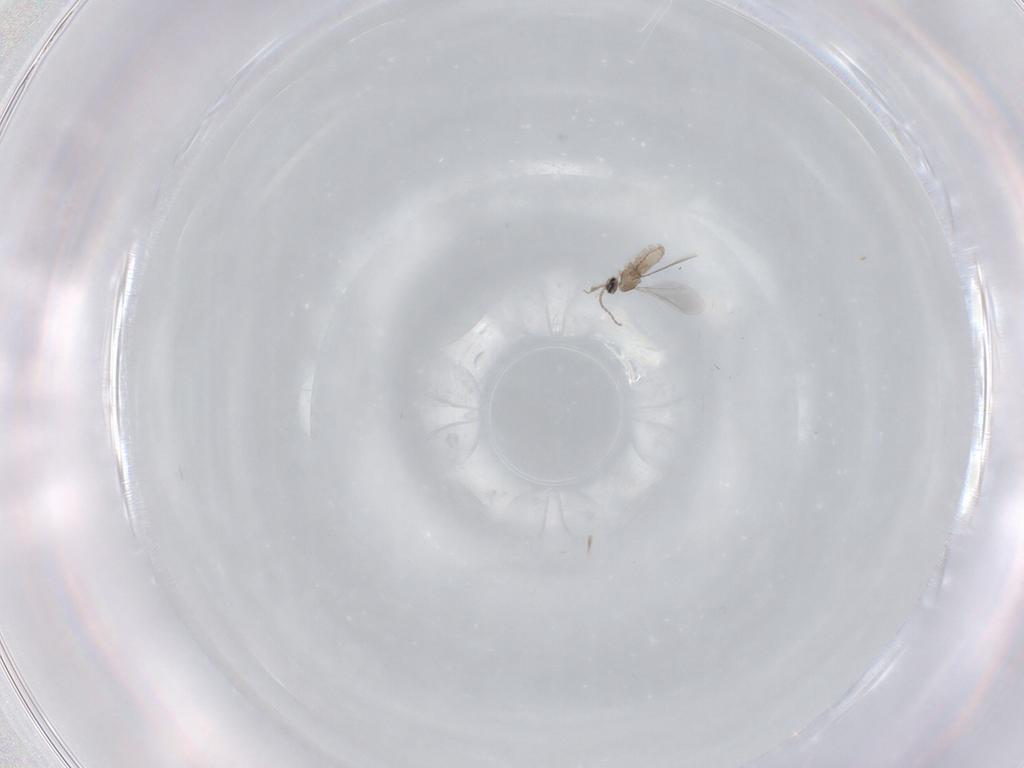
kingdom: Animalia
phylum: Arthropoda
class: Insecta
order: Diptera
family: Cecidomyiidae
